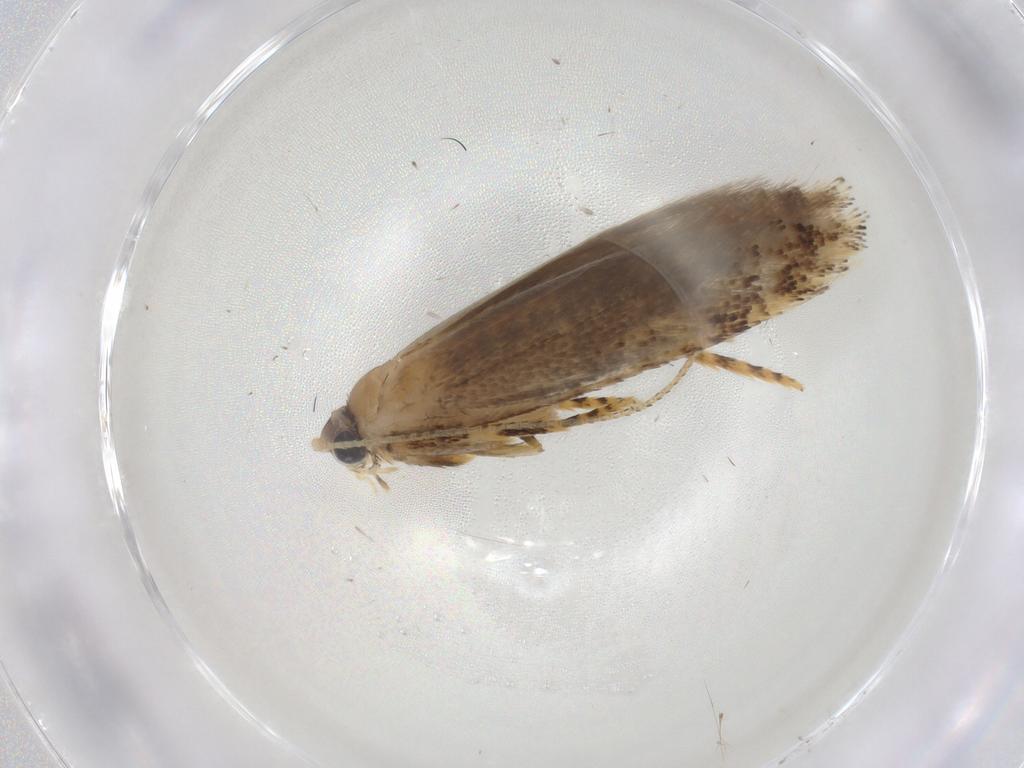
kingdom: Animalia
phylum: Arthropoda
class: Insecta
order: Lepidoptera
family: Tineidae
